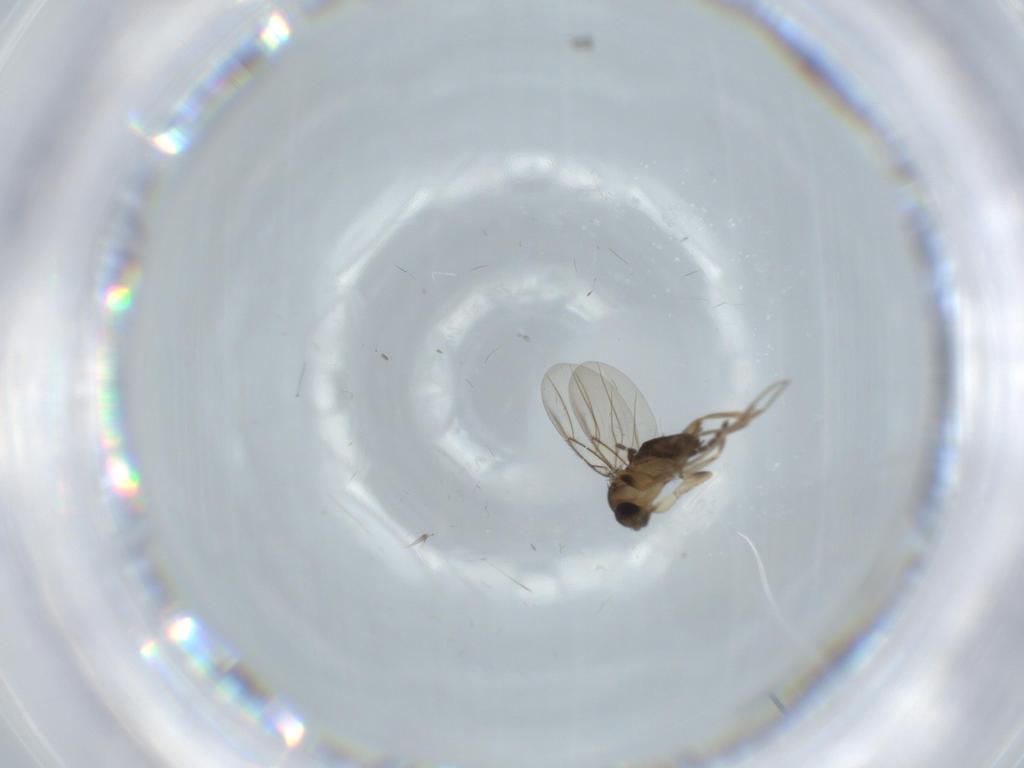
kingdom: Animalia
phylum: Arthropoda
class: Insecta
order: Diptera
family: Phoridae
